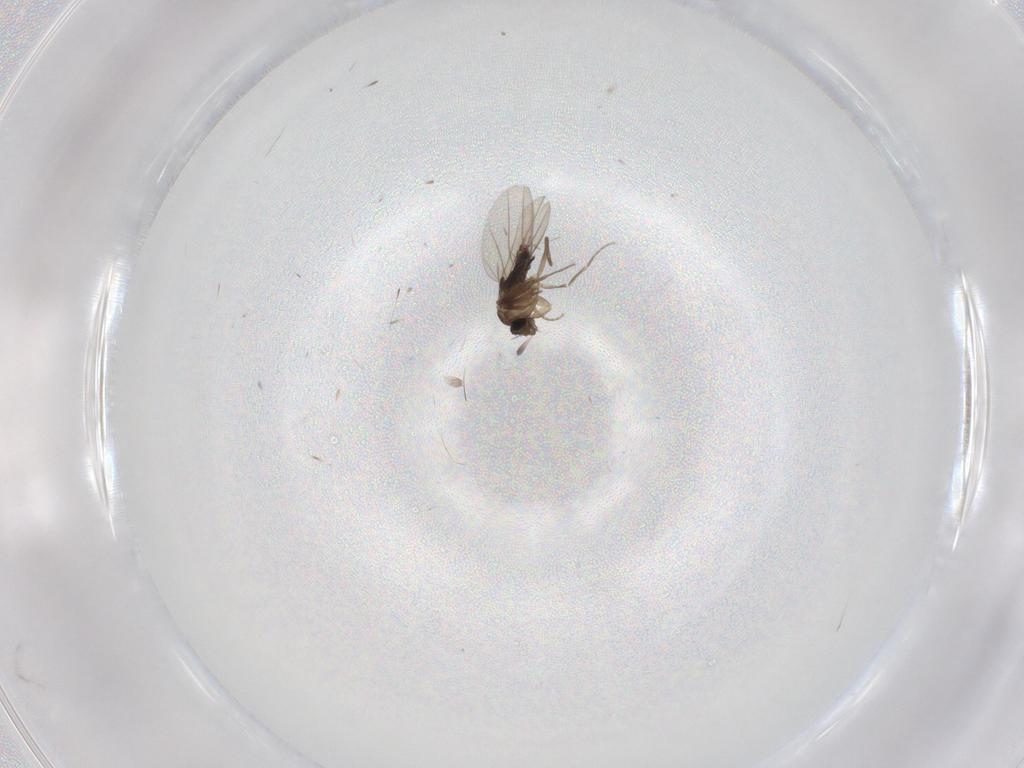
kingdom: Animalia
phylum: Arthropoda
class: Insecta
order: Diptera
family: Phoridae
